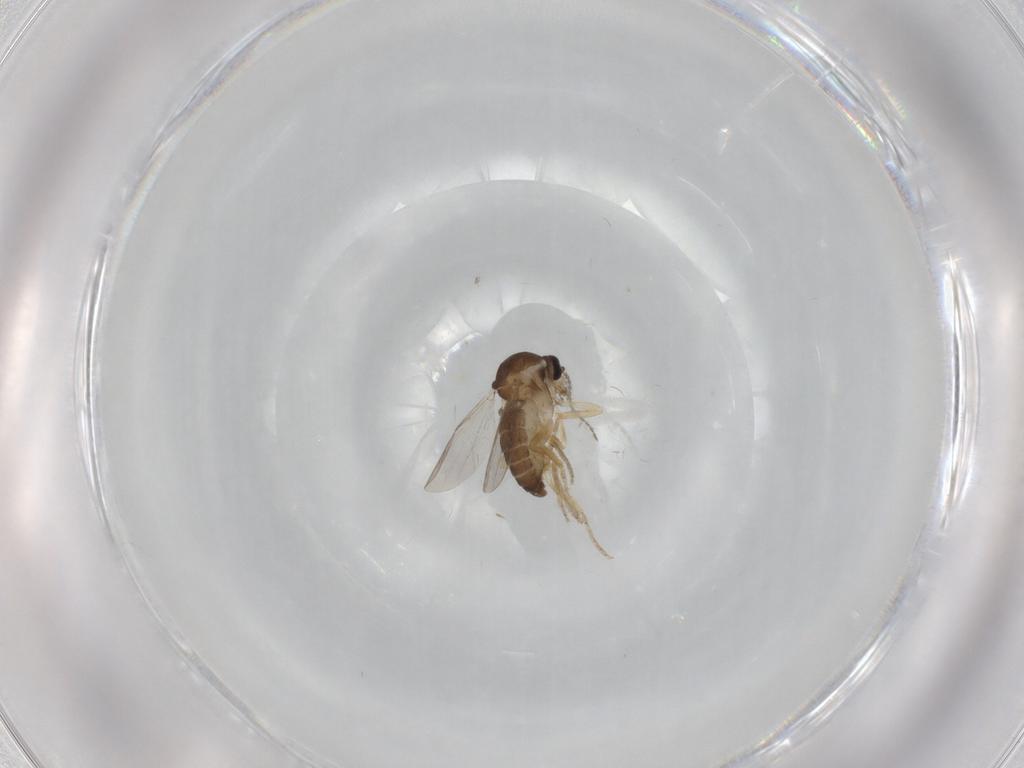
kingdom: Animalia
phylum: Arthropoda
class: Insecta
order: Diptera
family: Ceratopogonidae
